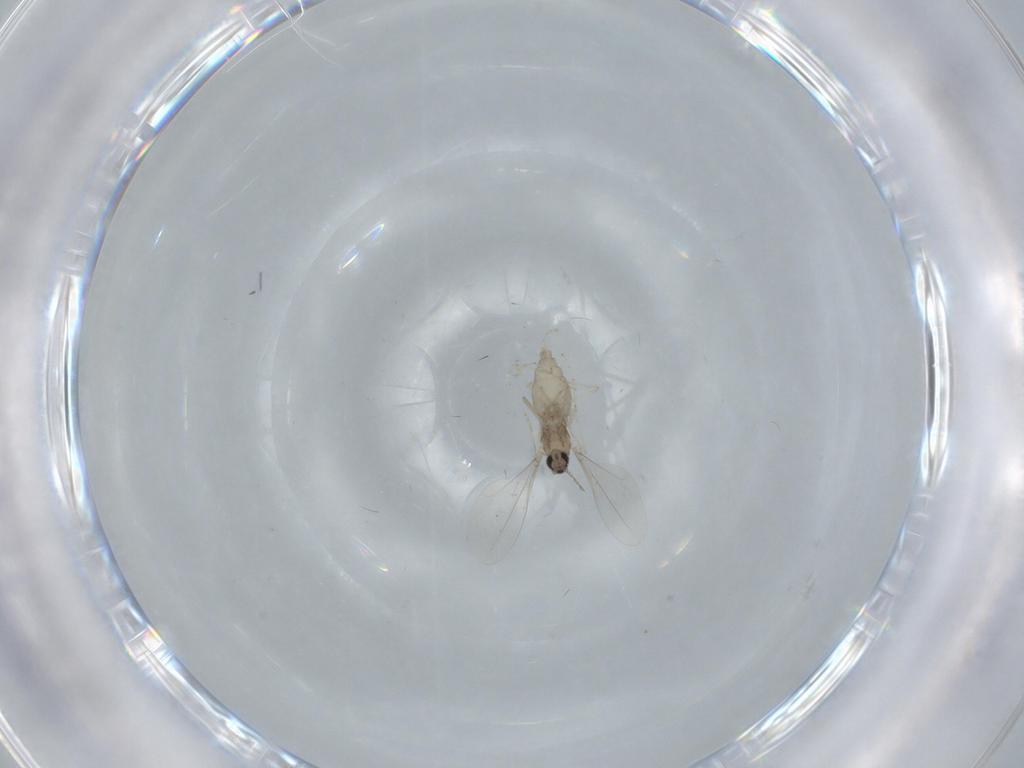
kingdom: Animalia
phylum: Arthropoda
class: Insecta
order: Diptera
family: Cecidomyiidae
